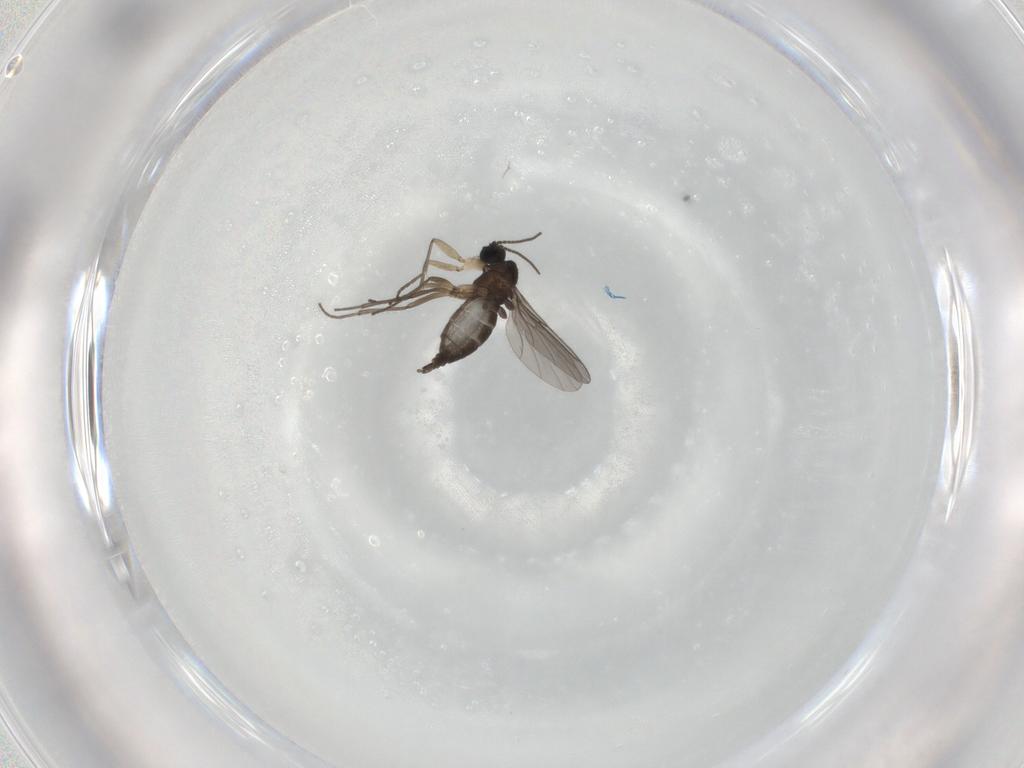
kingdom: Animalia
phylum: Arthropoda
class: Insecta
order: Diptera
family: Sciaridae
